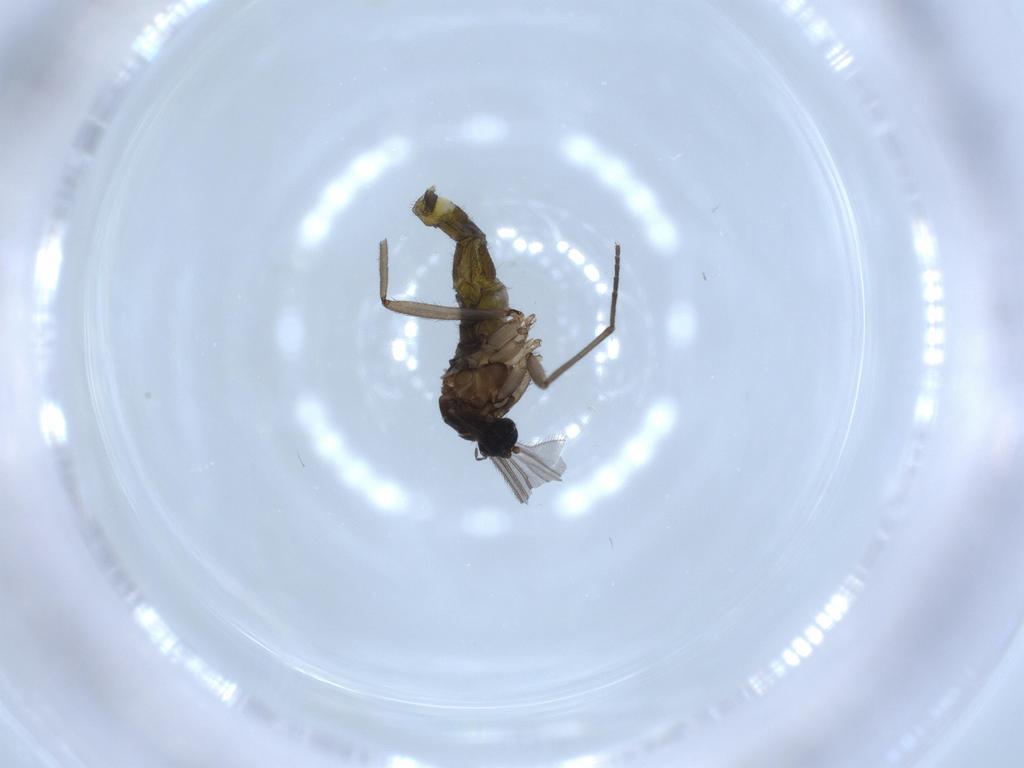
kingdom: Animalia
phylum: Arthropoda
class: Insecta
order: Diptera
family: Sciaridae
